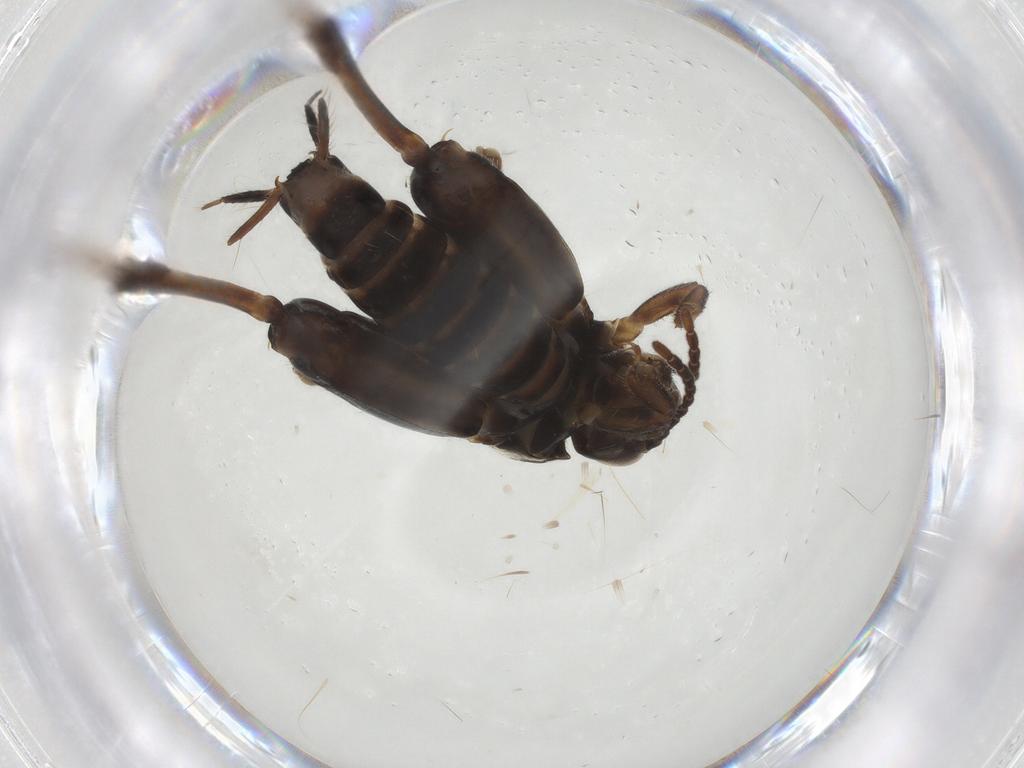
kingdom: Animalia
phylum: Arthropoda
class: Insecta
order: Orthoptera
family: Tridactylidae
